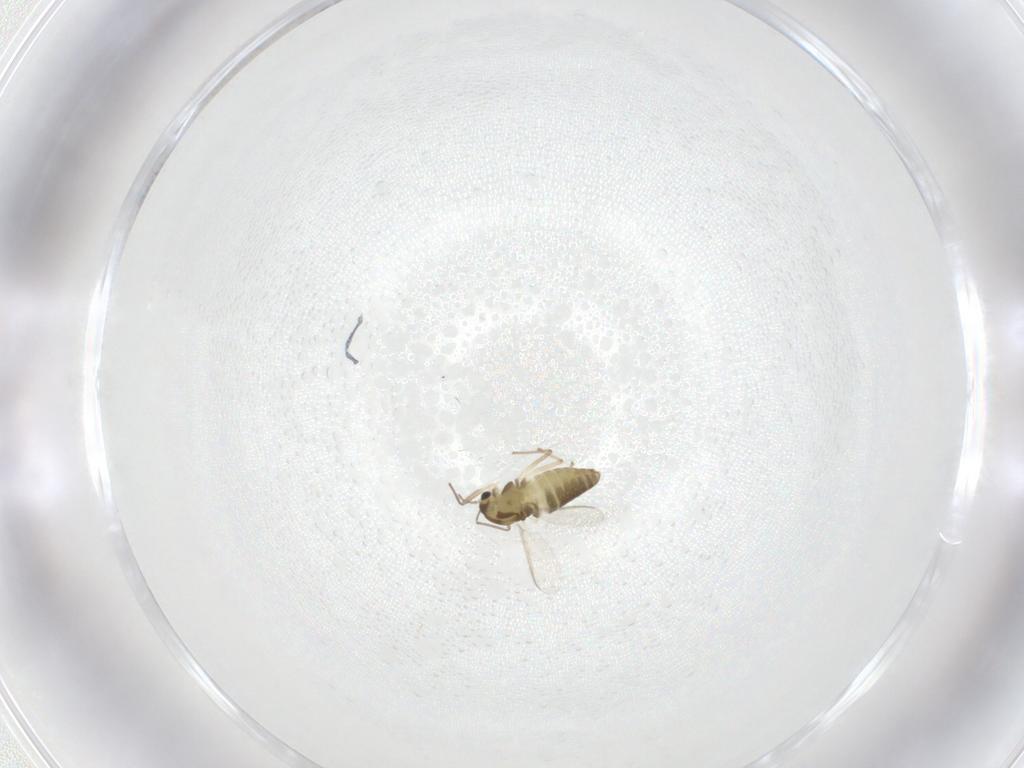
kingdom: Animalia
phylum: Arthropoda
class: Insecta
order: Diptera
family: Chironomidae
